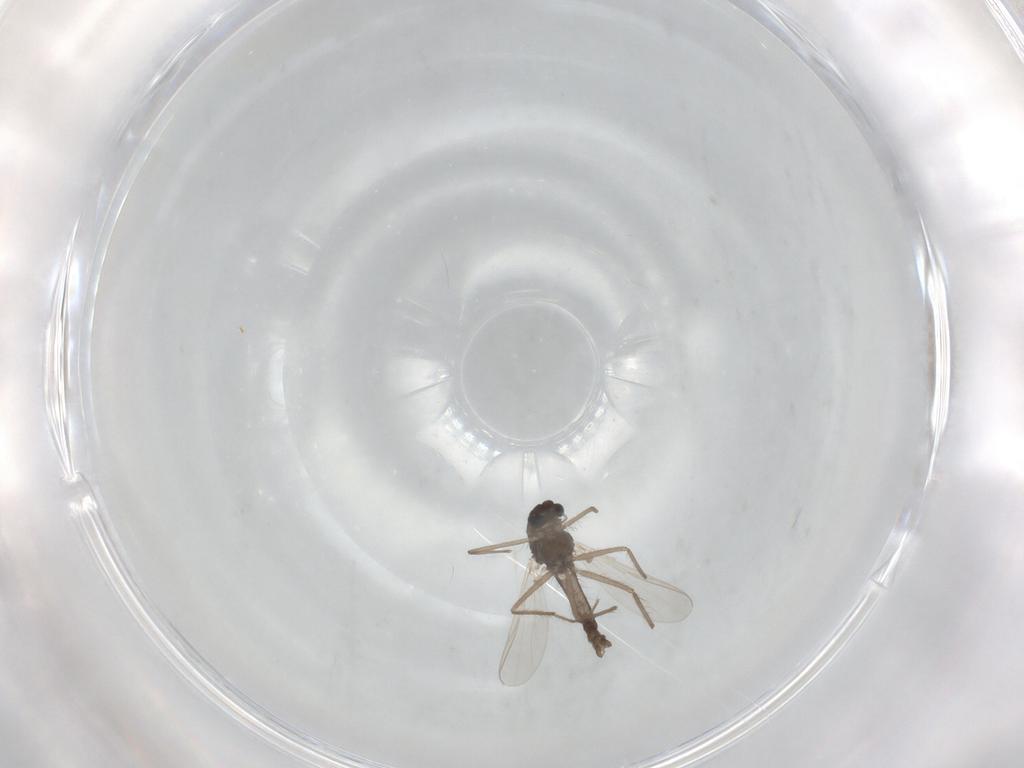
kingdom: Animalia
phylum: Arthropoda
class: Insecta
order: Diptera
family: Chironomidae
